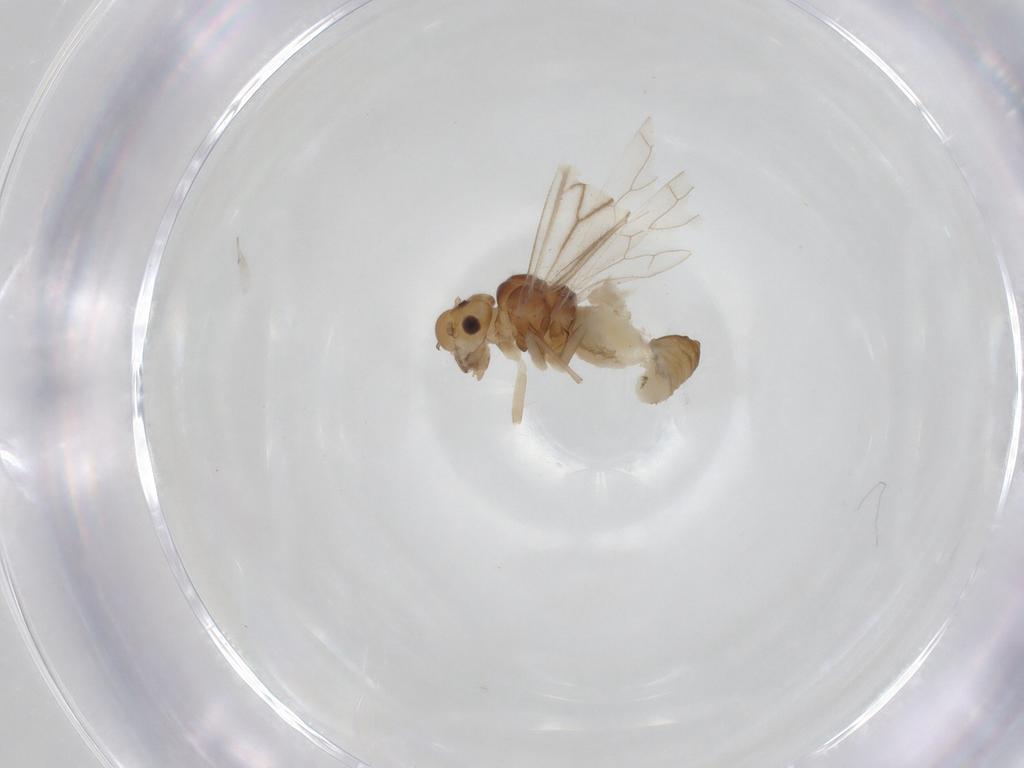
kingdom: Animalia
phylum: Arthropoda
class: Insecta
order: Psocodea
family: Philotarsidae
